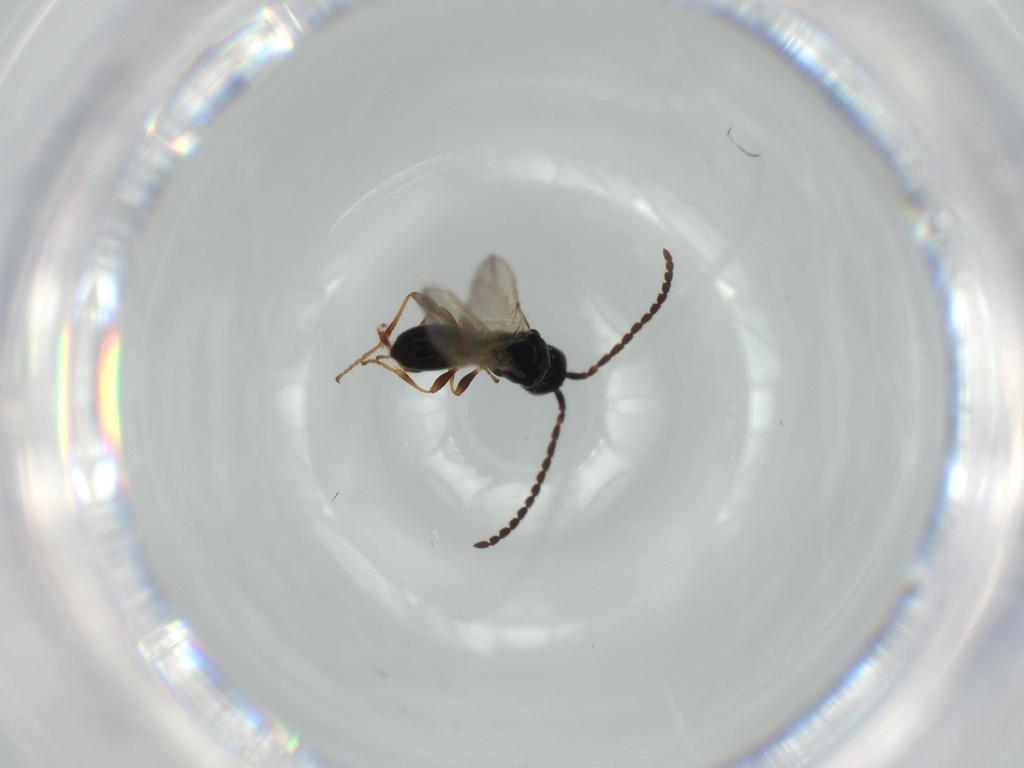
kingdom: Animalia
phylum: Arthropoda
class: Insecta
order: Hymenoptera
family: Diapriidae
